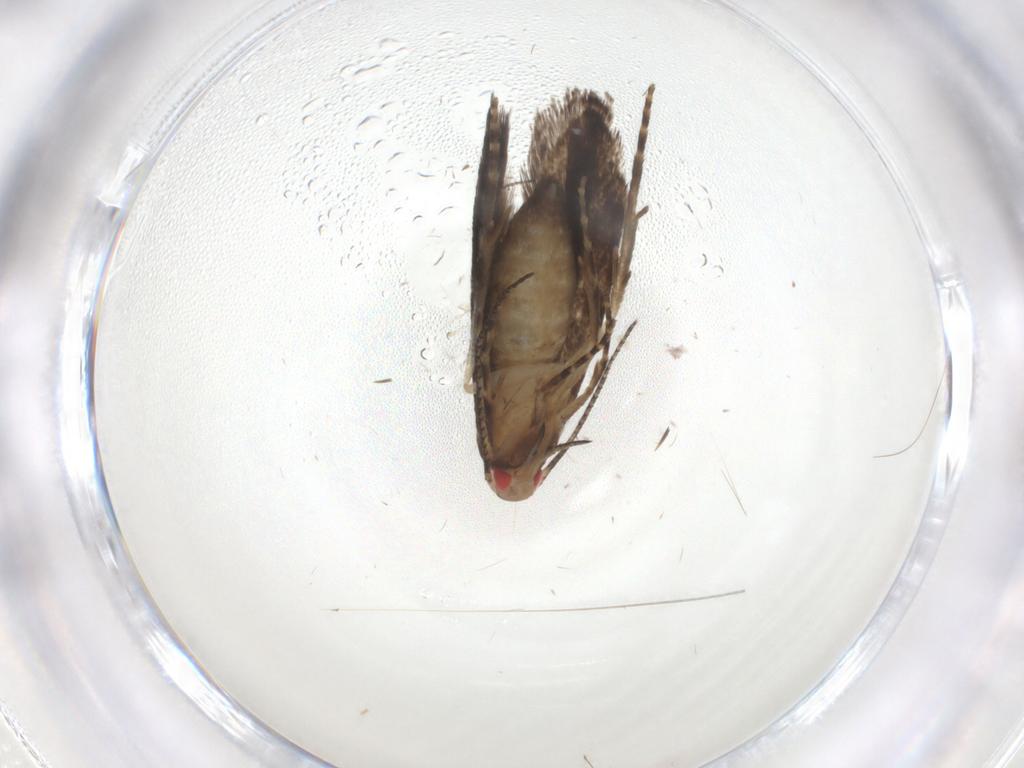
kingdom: Animalia
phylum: Arthropoda
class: Insecta
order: Lepidoptera
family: Gelechiidae
